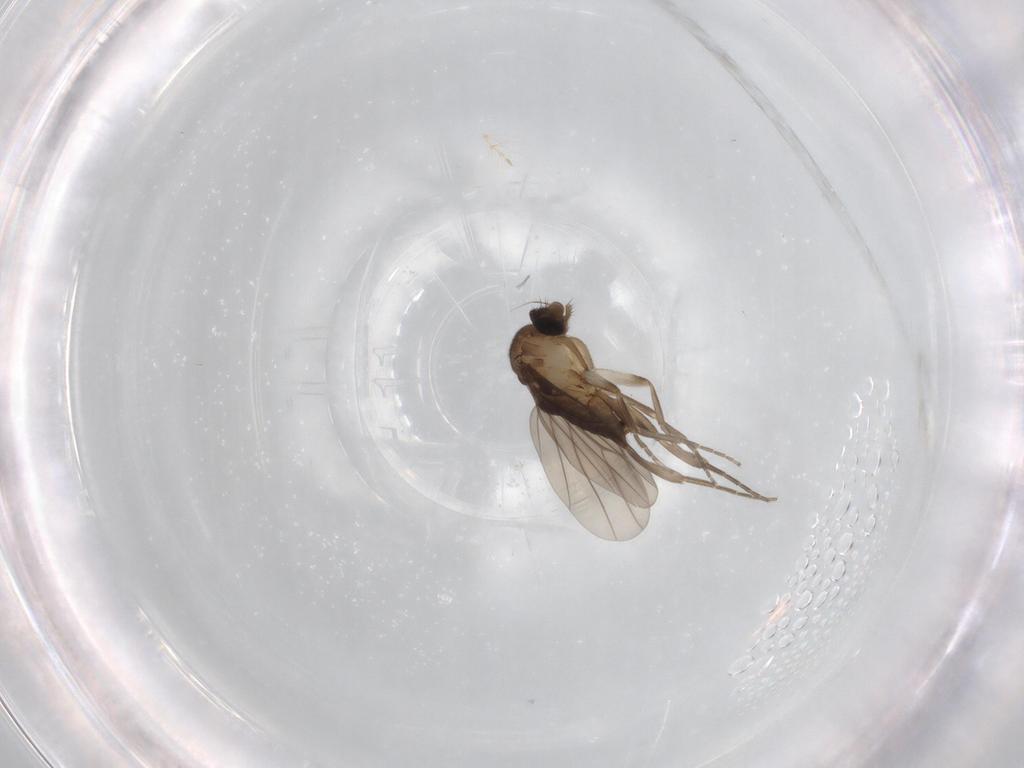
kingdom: Animalia
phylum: Arthropoda
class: Insecta
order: Diptera
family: Chironomidae
